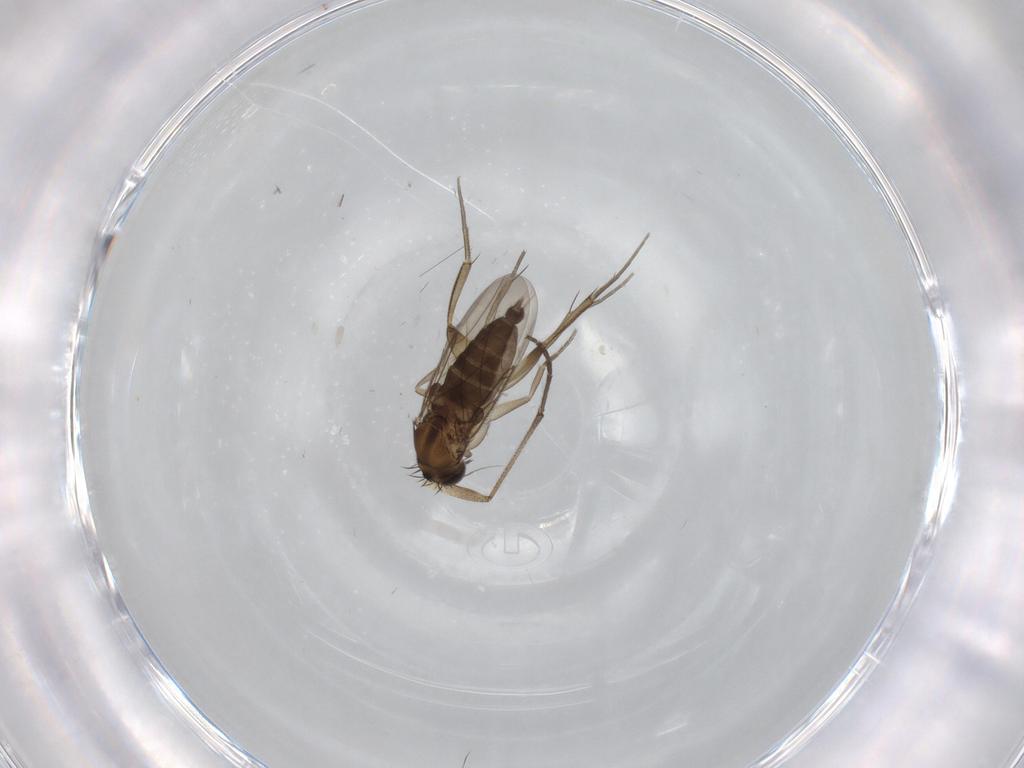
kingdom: Animalia
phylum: Arthropoda
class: Insecta
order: Diptera
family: Phoridae
